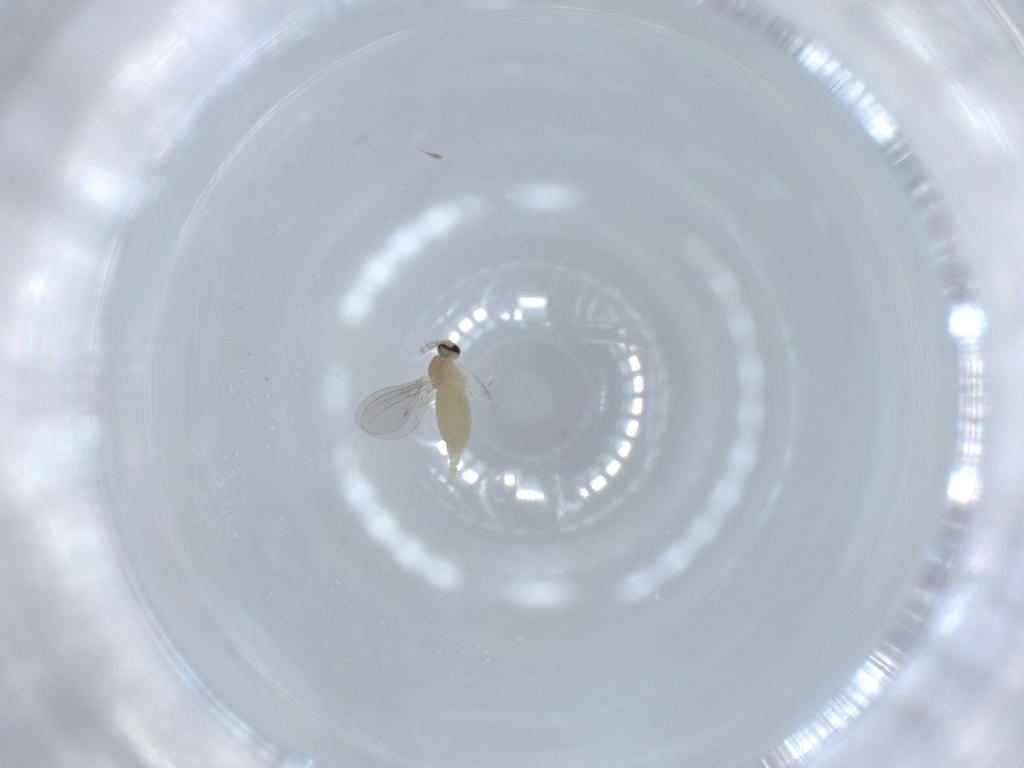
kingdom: Animalia
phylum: Arthropoda
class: Insecta
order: Diptera
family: Cecidomyiidae
